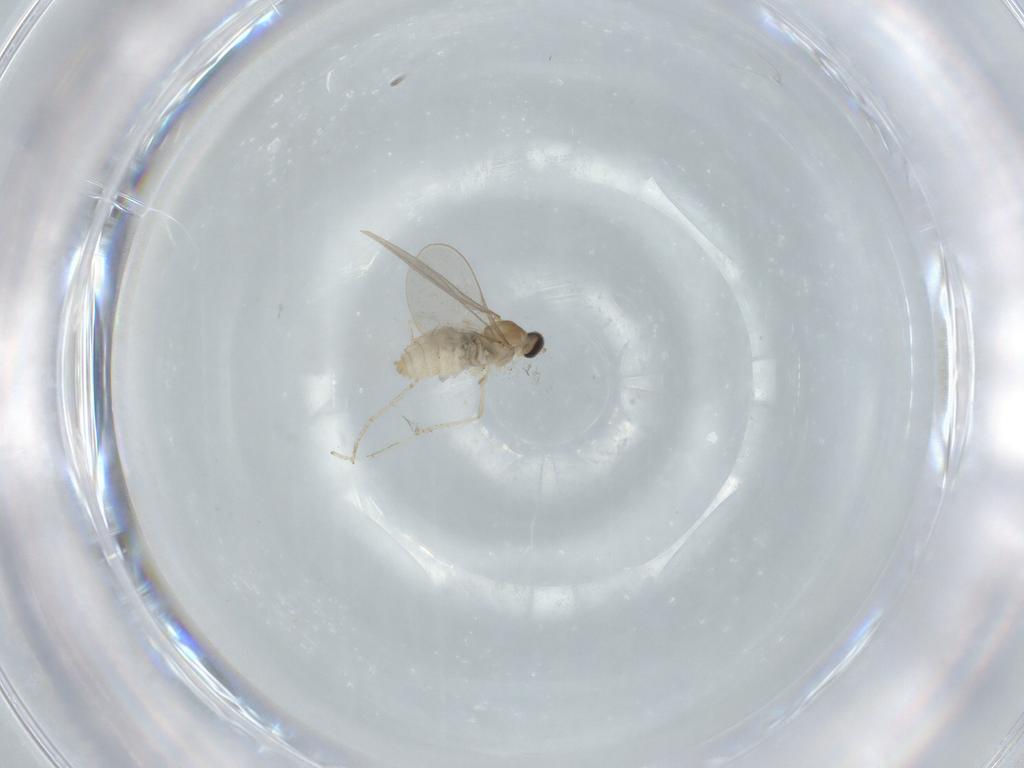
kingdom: Animalia
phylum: Arthropoda
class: Insecta
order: Diptera
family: Cecidomyiidae
